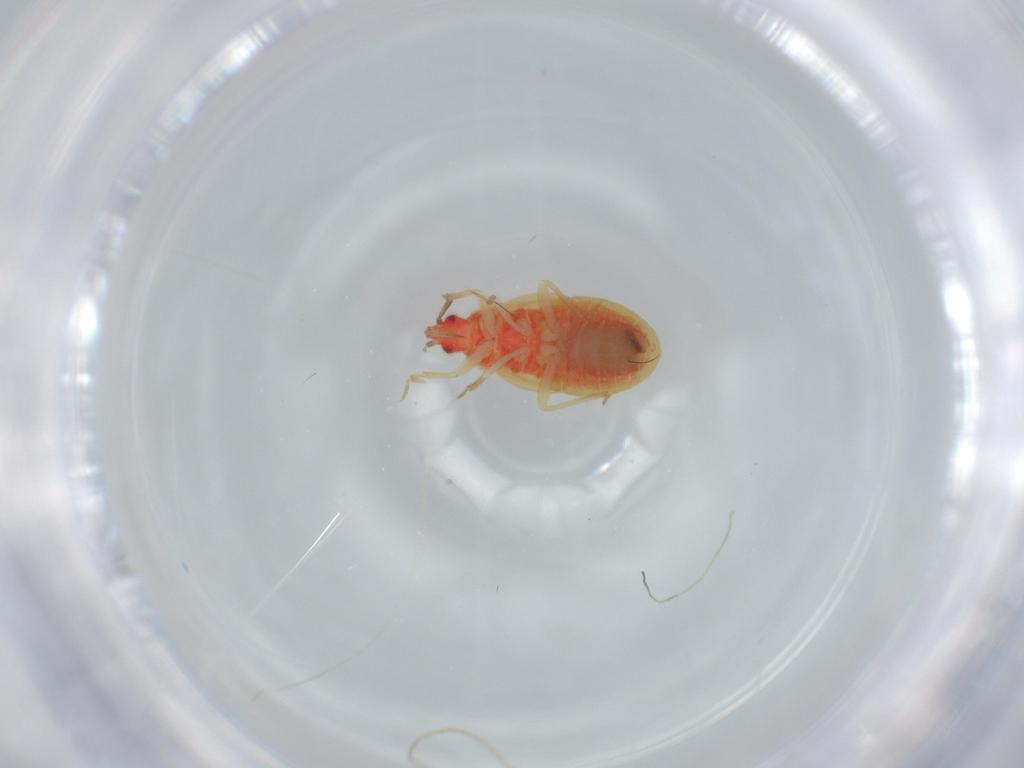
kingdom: Animalia
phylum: Arthropoda
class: Insecta
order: Hemiptera
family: Anthocoridae
